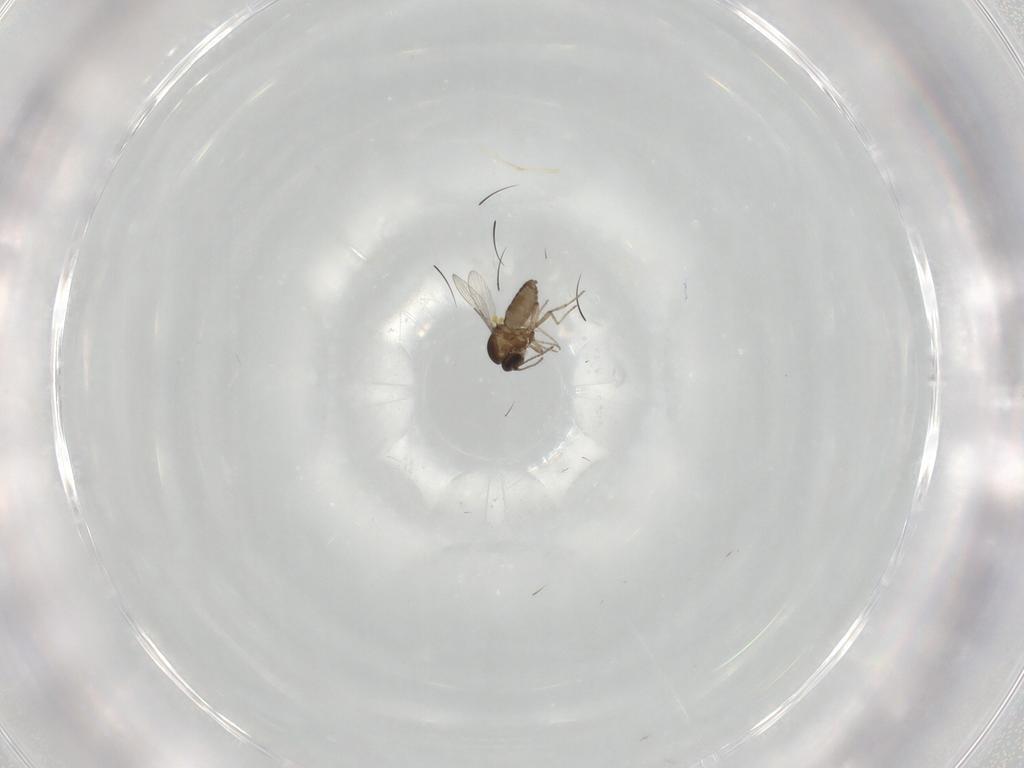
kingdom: Animalia
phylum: Arthropoda
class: Insecta
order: Diptera
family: Ceratopogonidae
